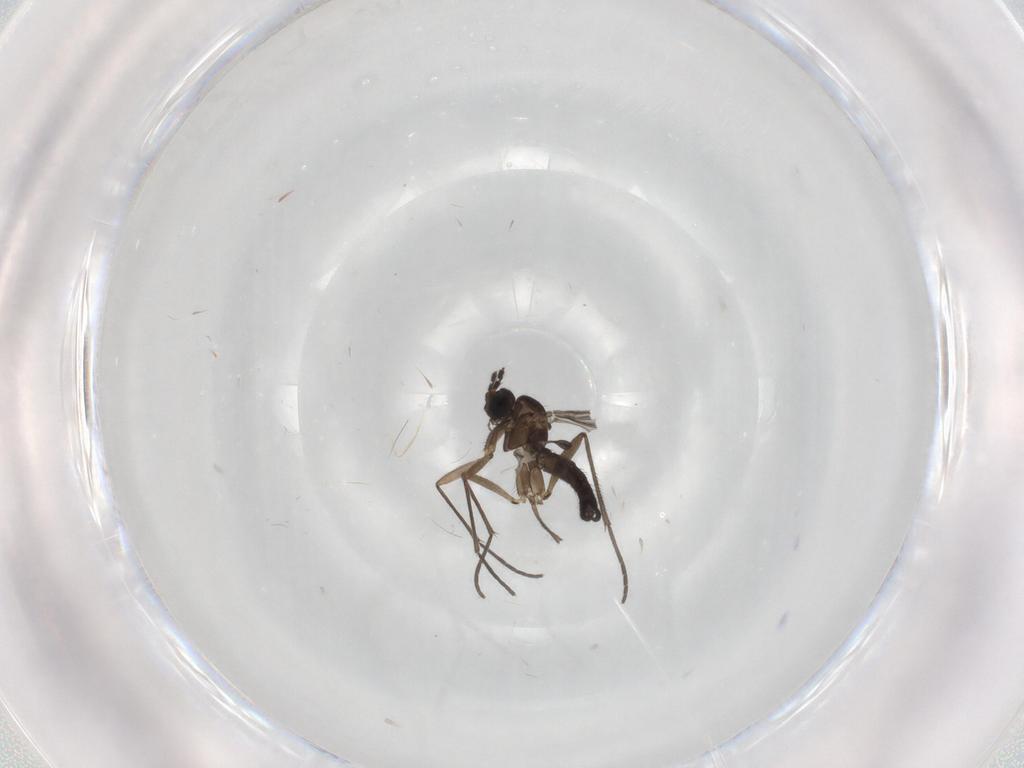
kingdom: Animalia
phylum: Arthropoda
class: Insecta
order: Diptera
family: Sciaridae
